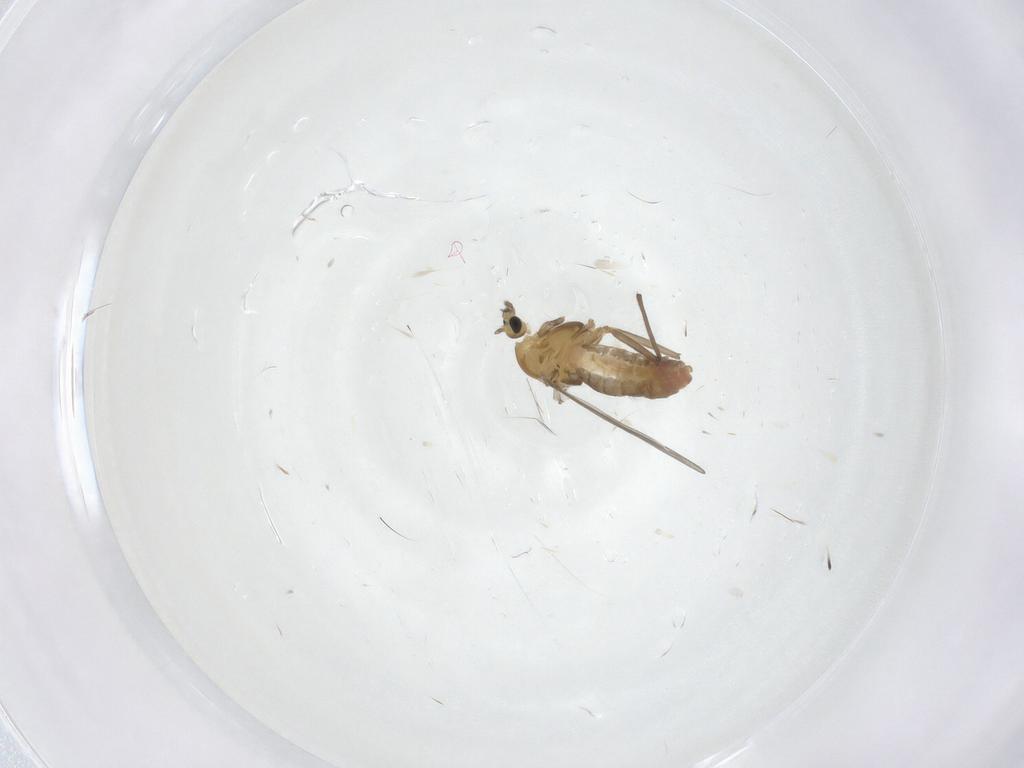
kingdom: Animalia
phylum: Arthropoda
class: Insecta
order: Diptera
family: Chironomidae
